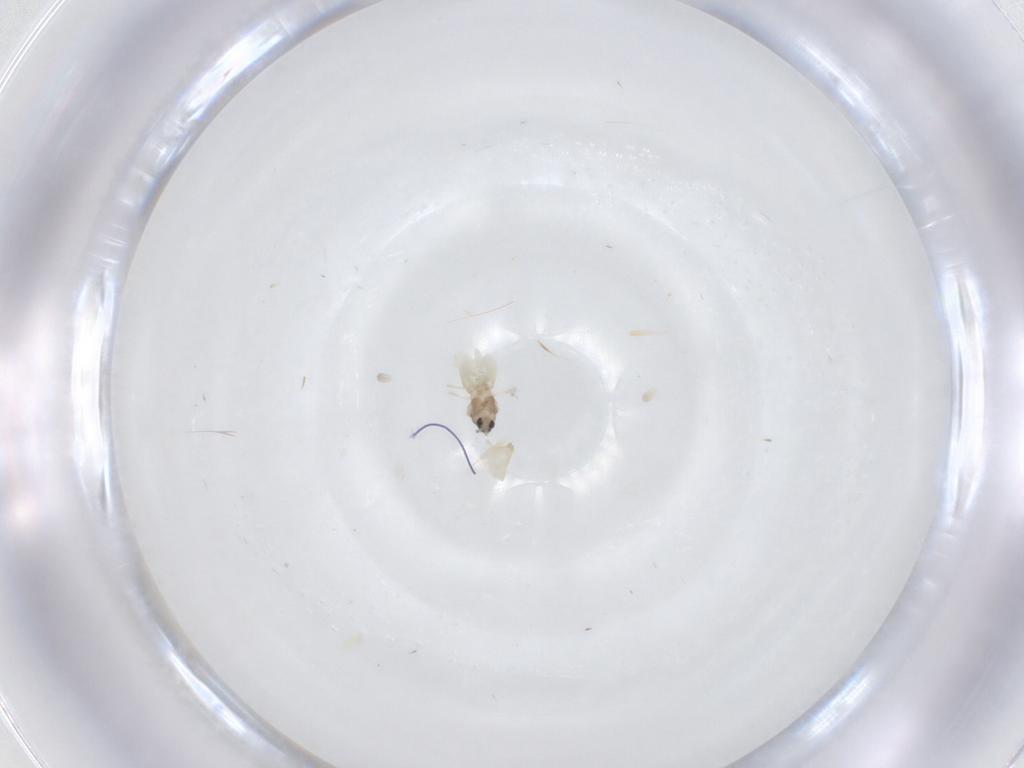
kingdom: Animalia
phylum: Arthropoda
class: Insecta
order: Diptera
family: Cecidomyiidae
